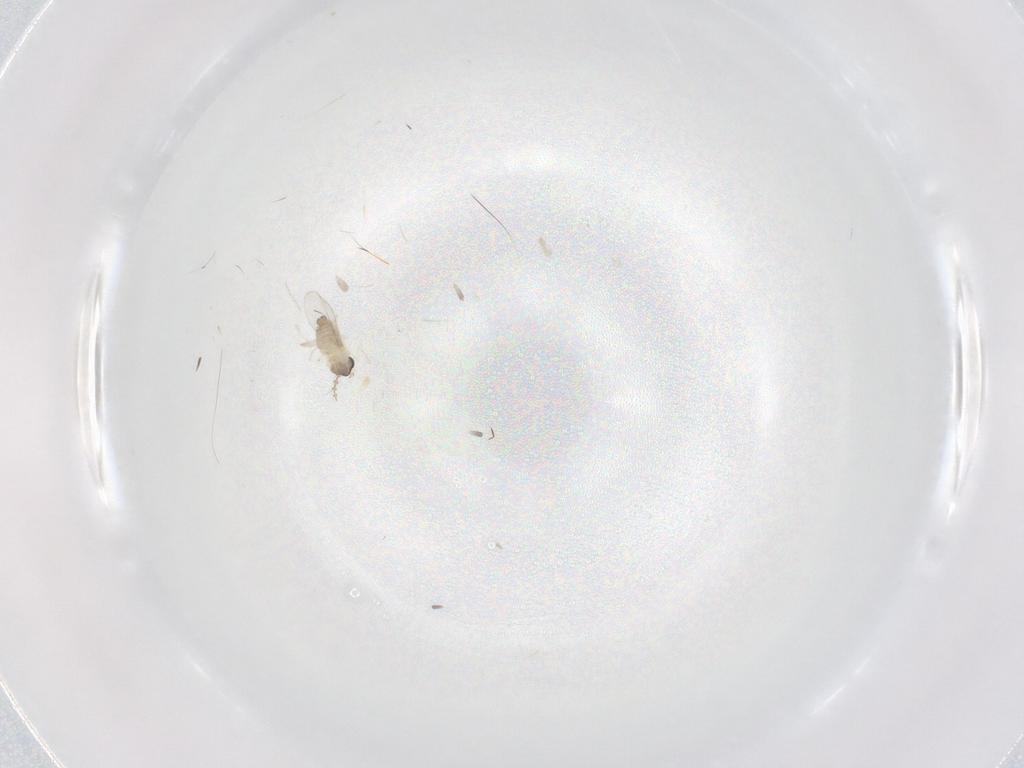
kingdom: Animalia
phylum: Arthropoda
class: Insecta
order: Diptera
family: Cecidomyiidae
